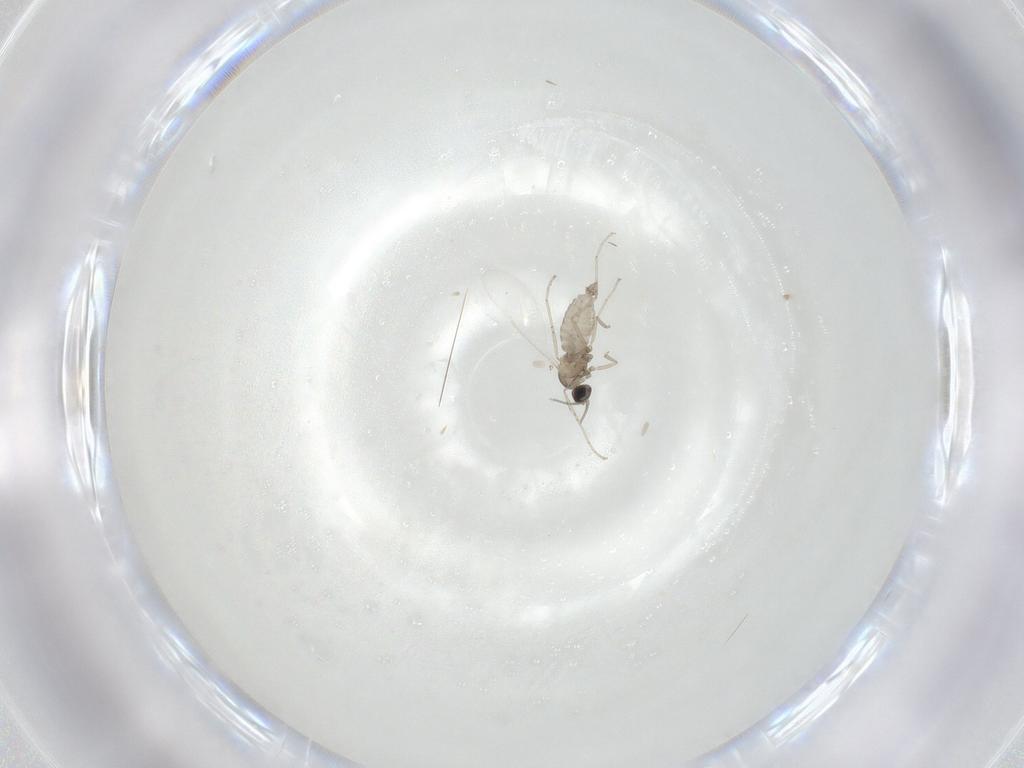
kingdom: Animalia
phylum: Arthropoda
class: Insecta
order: Diptera
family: Cecidomyiidae
